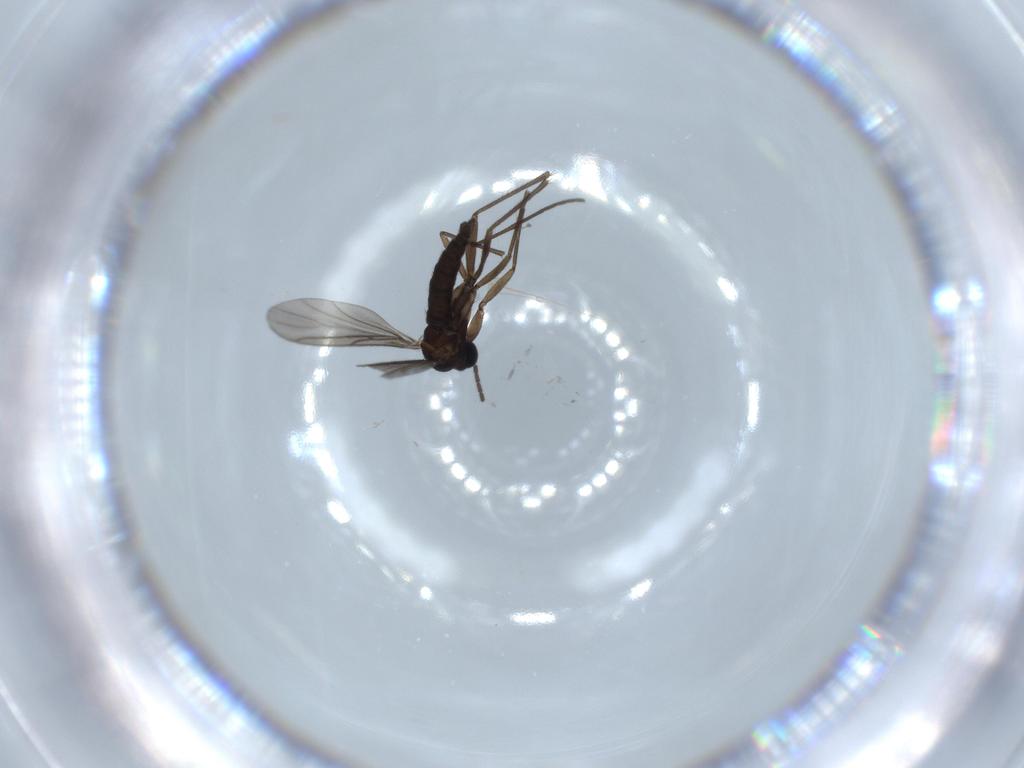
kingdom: Animalia
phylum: Arthropoda
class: Insecta
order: Diptera
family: Sciaridae
